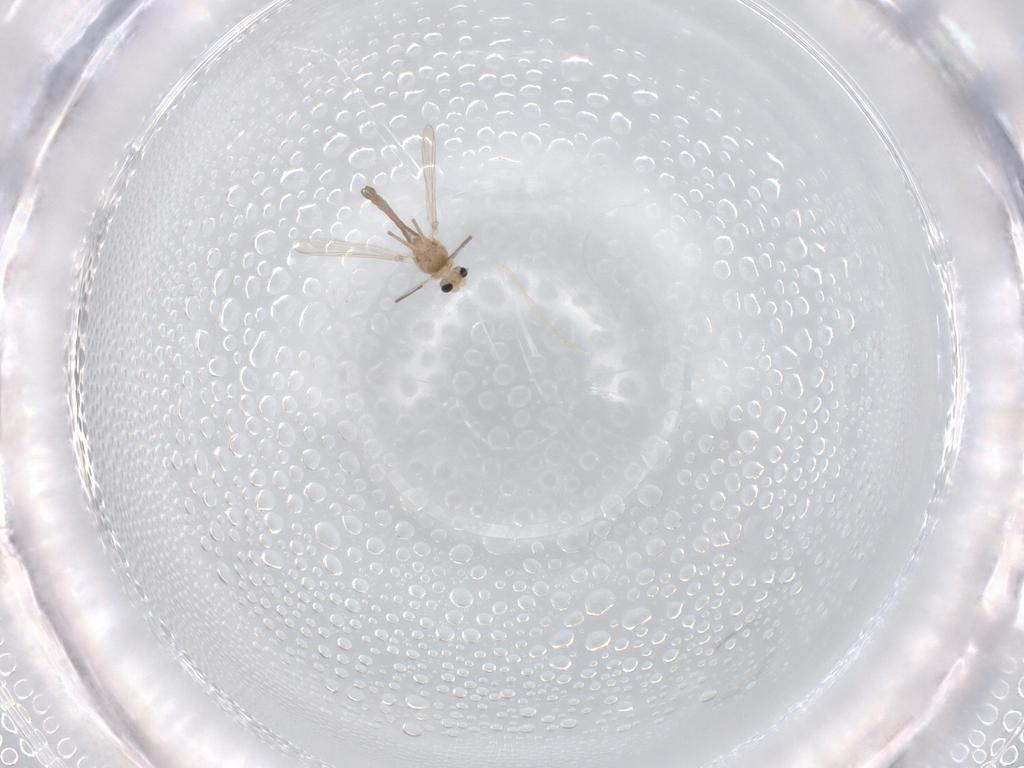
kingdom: Animalia
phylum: Arthropoda
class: Insecta
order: Diptera
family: Chironomidae
